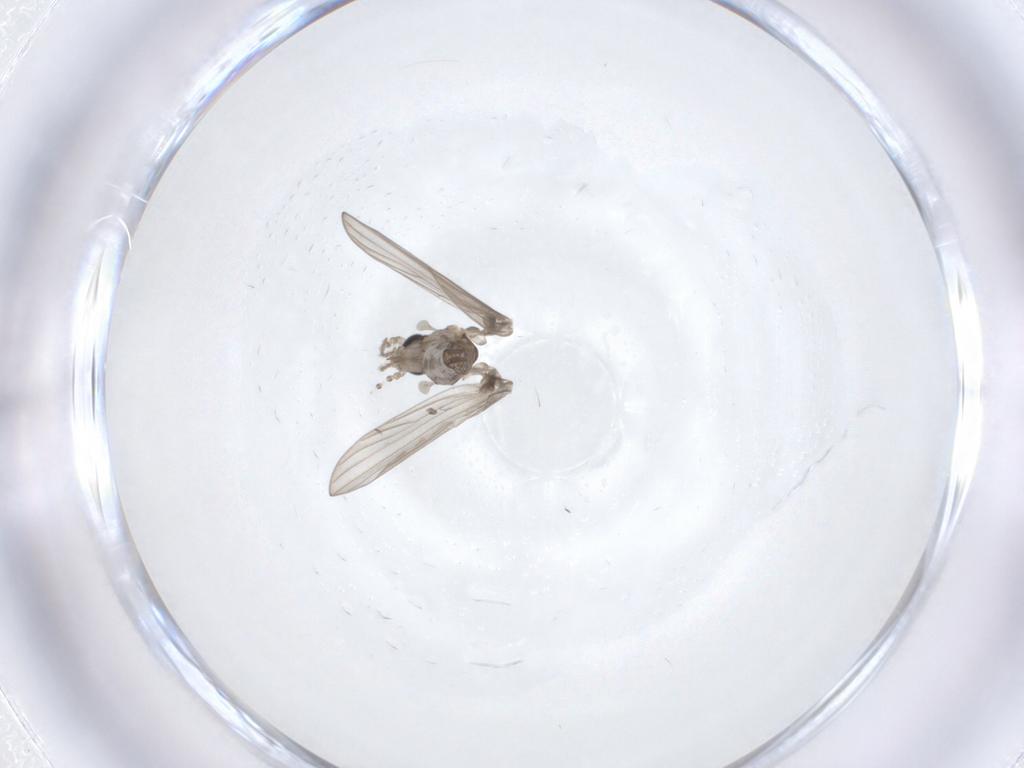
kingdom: Animalia
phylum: Arthropoda
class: Insecta
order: Diptera
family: Psychodidae
